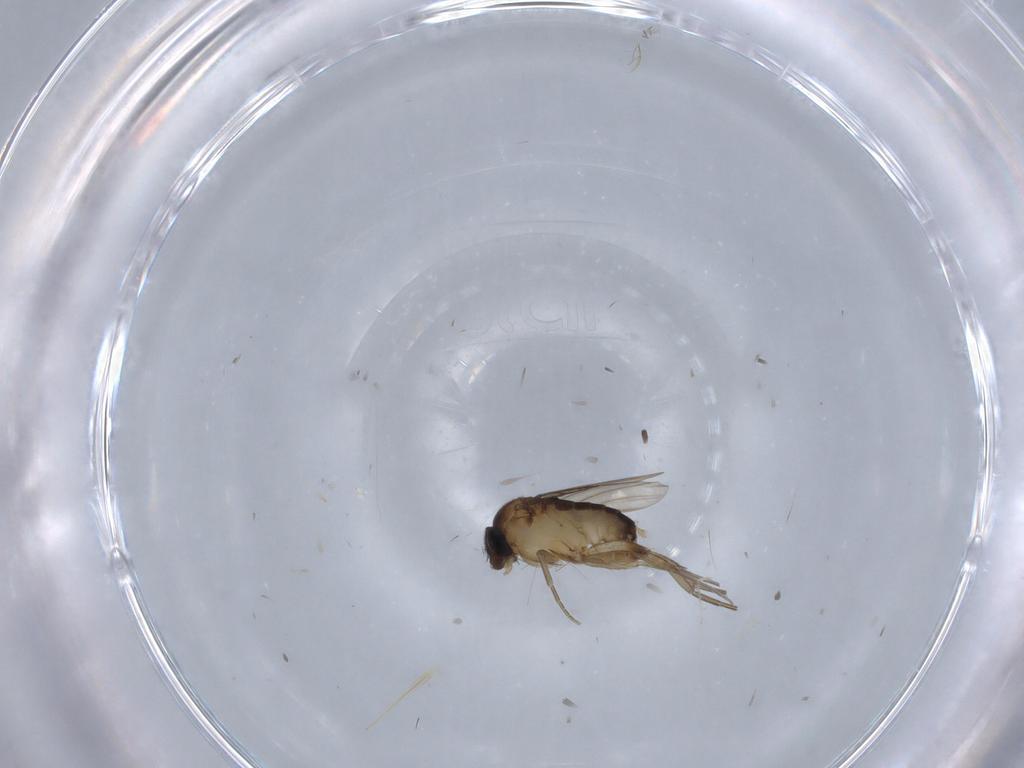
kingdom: Animalia
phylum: Arthropoda
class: Insecta
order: Diptera
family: Phoridae
